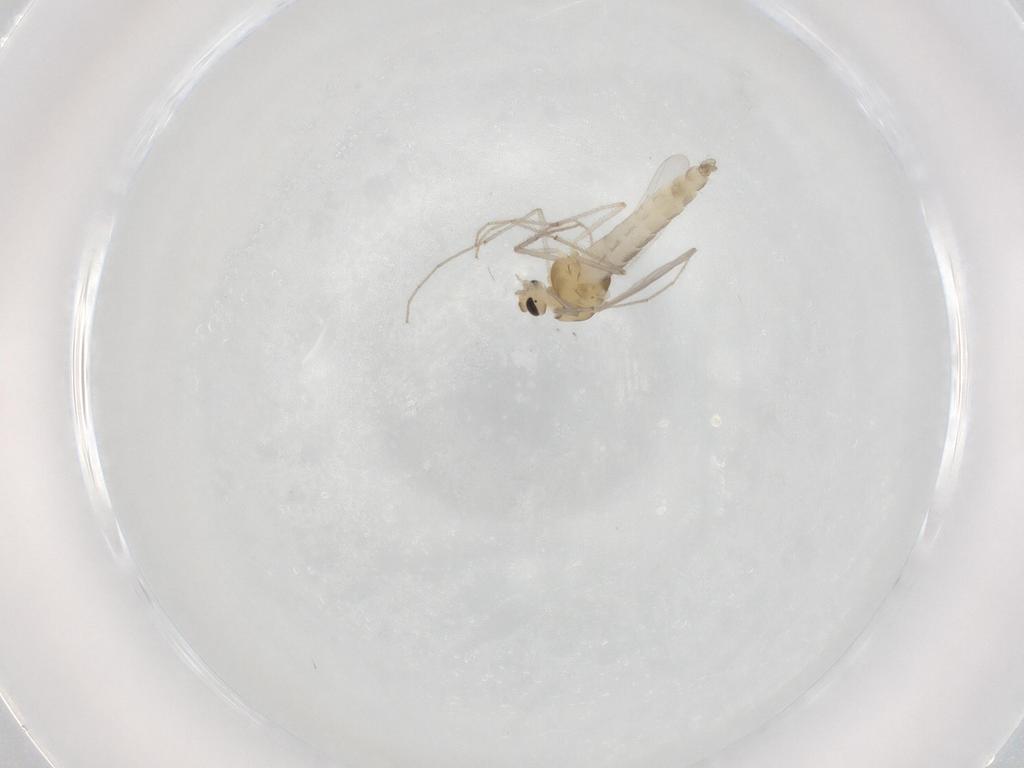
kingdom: Animalia
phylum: Arthropoda
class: Insecta
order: Diptera
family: Chironomidae
